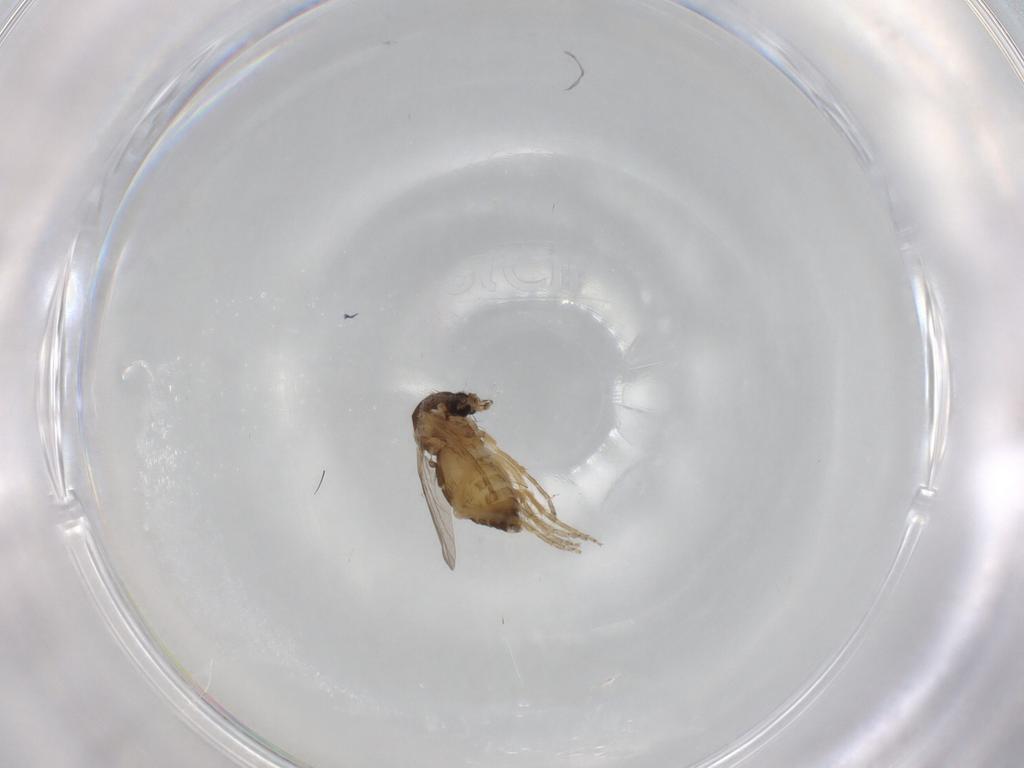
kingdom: Animalia
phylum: Arthropoda
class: Insecta
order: Diptera
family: Ceratopogonidae
